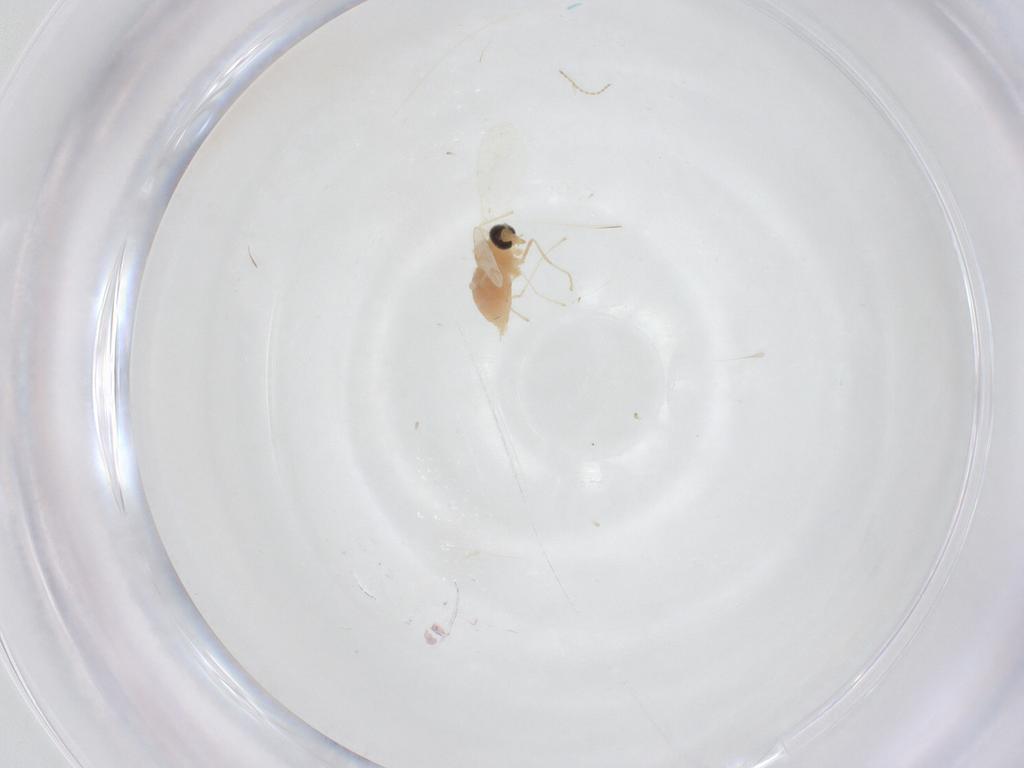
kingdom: Animalia
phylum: Arthropoda
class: Insecta
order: Diptera
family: Cecidomyiidae
